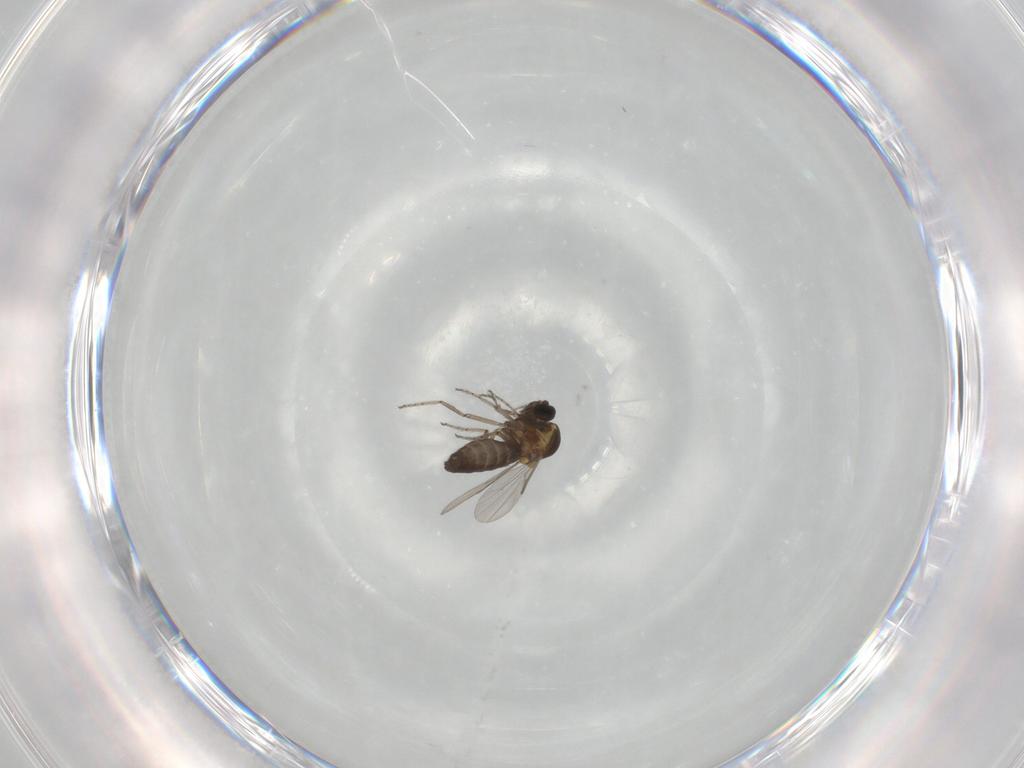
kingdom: Animalia
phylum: Arthropoda
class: Insecta
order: Diptera
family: Ceratopogonidae
